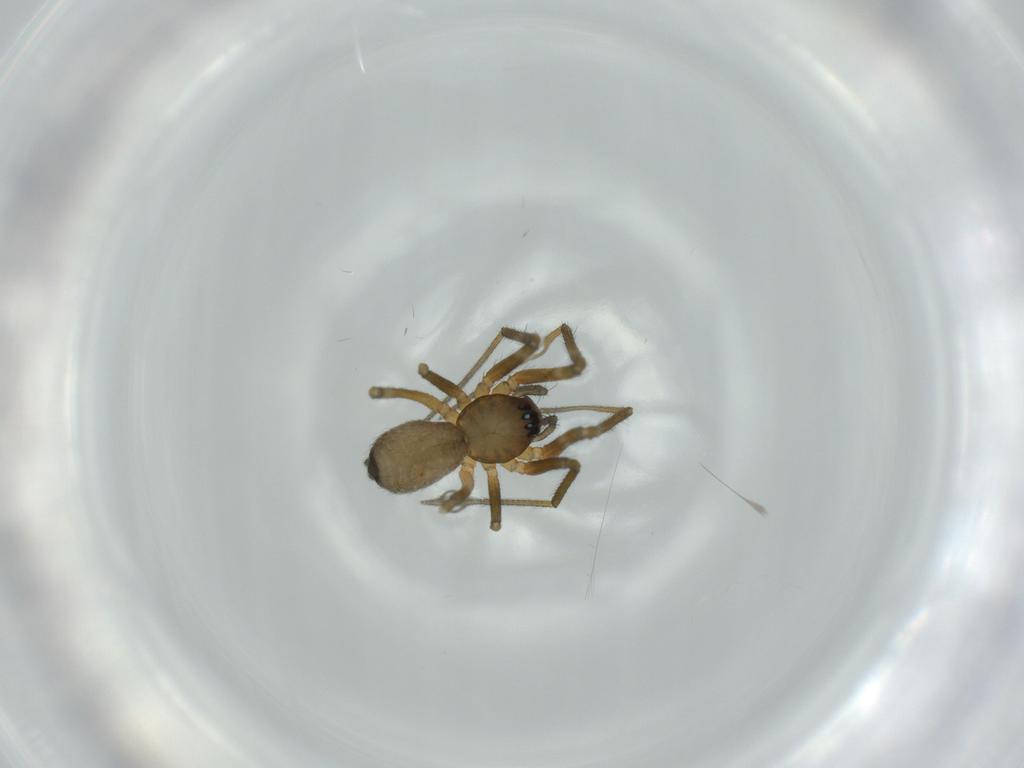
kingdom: Animalia
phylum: Arthropoda
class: Arachnida
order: Araneae
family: Linyphiidae
